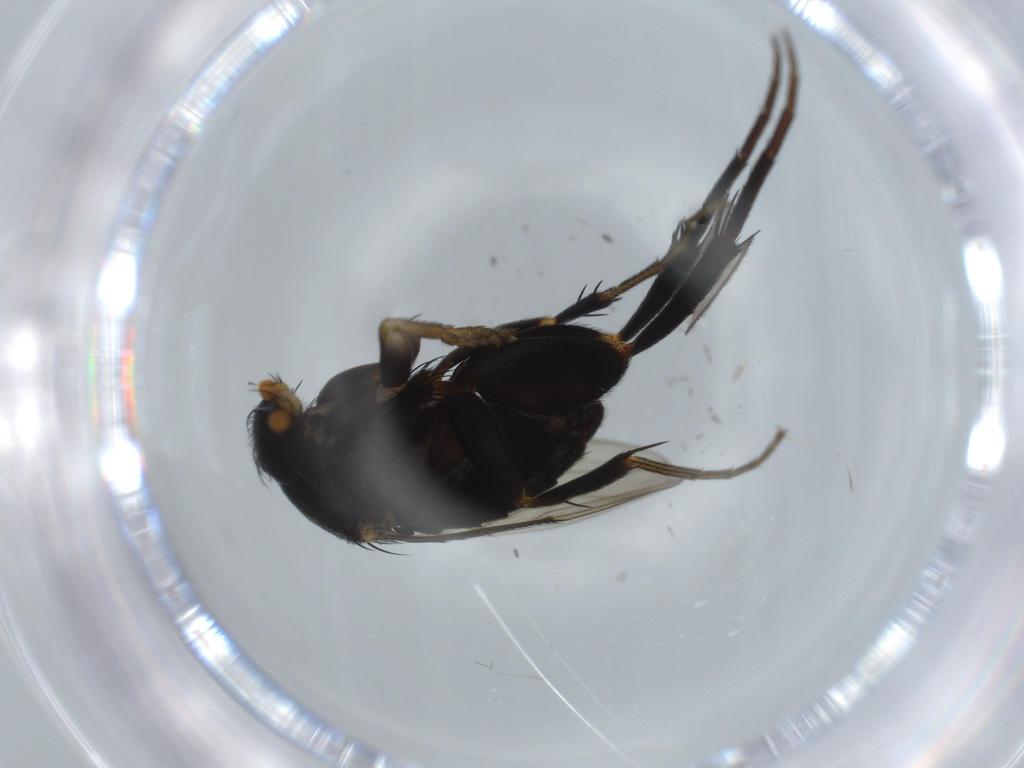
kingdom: Animalia
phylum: Arthropoda
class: Insecta
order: Diptera
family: Phoridae
